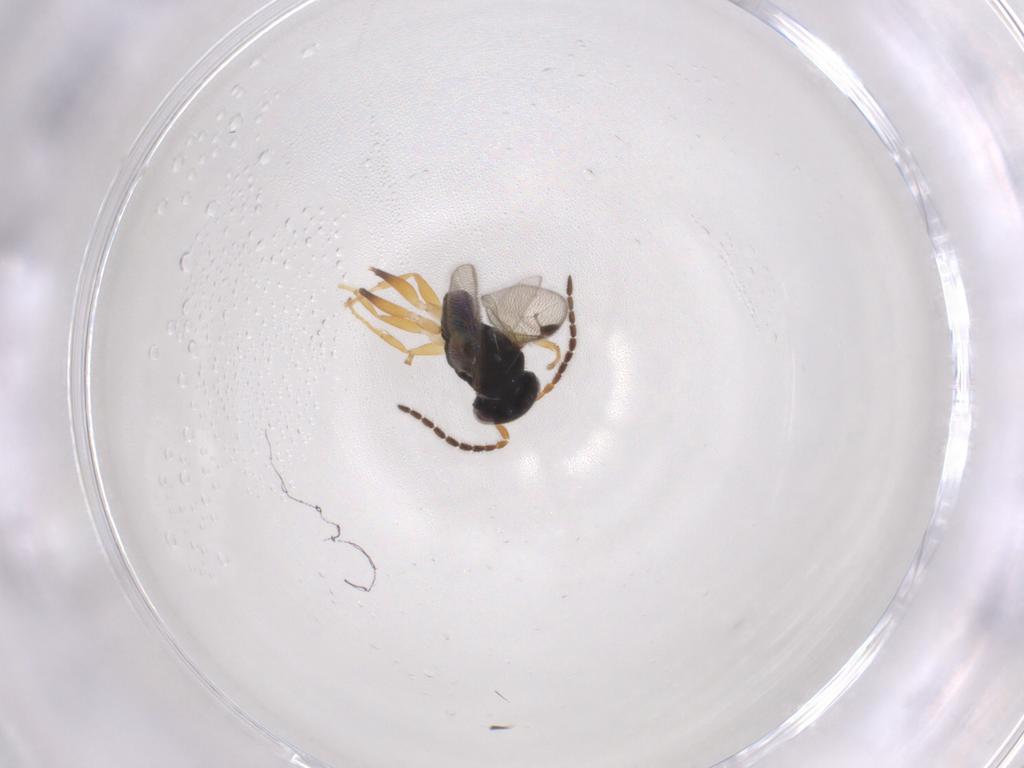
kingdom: Animalia
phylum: Arthropoda
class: Insecta
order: Hymenoptera
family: Dryinidae
